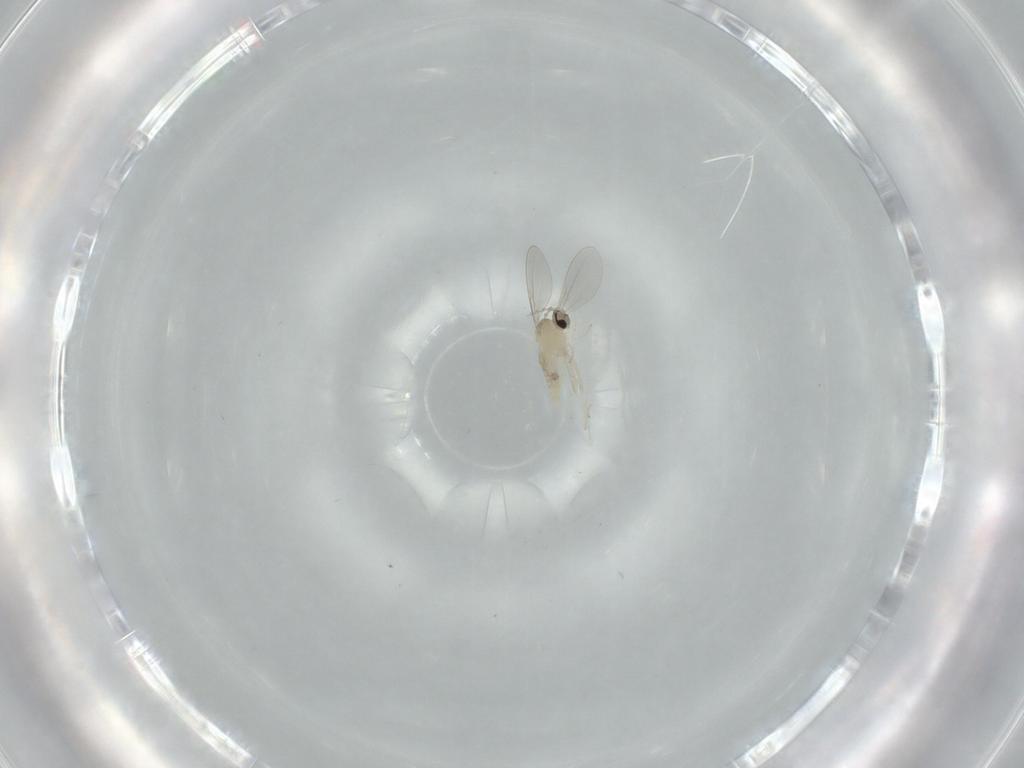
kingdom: Animalia
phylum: Arthropoda
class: Insecta
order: Diptera
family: Cecidomyiidae
